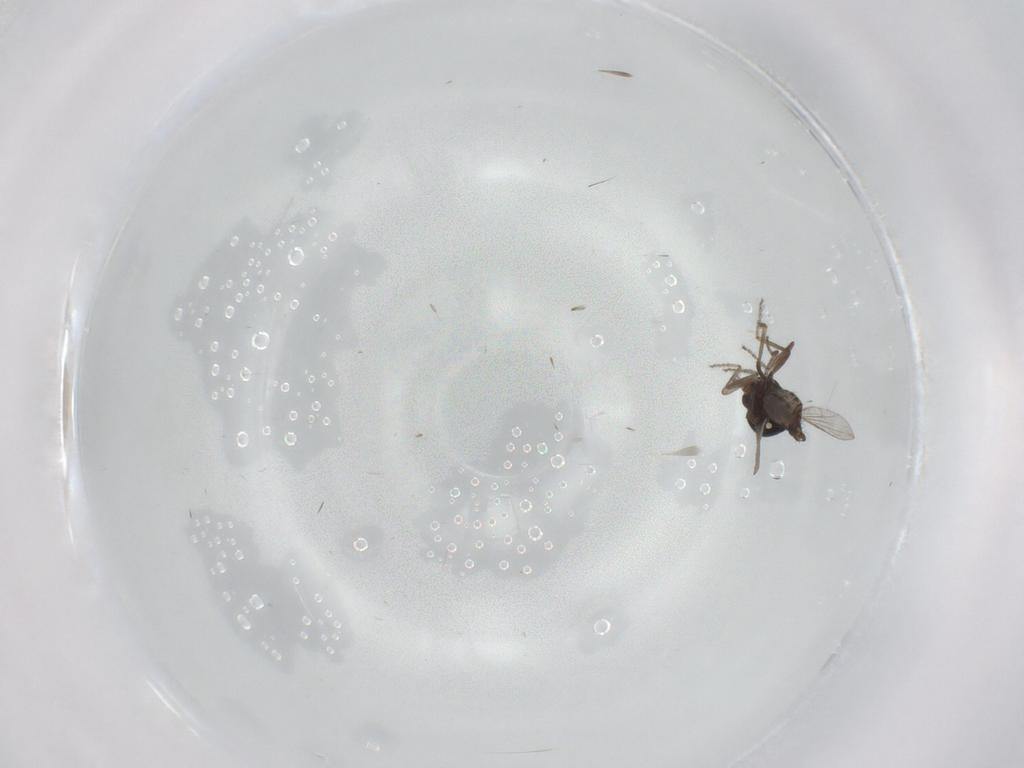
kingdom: Animalia
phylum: Arthropoda
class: Insecta
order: Diptera
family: Ceratopogonidae
